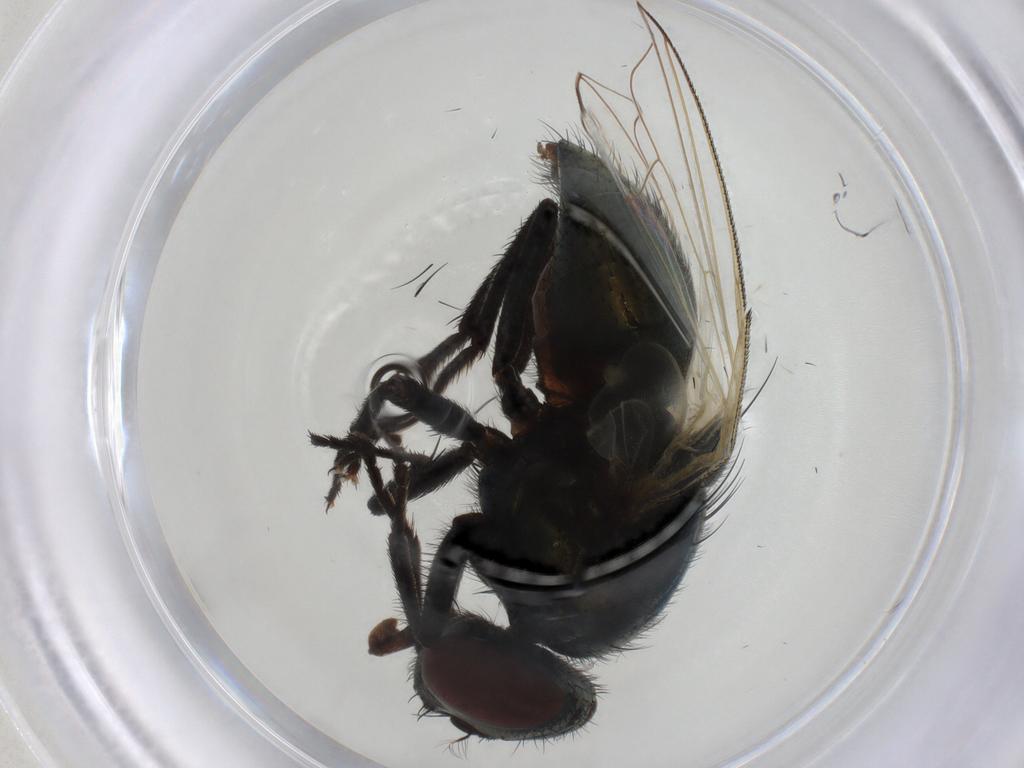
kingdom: Animalia
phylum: Arthropoda
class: Insecta
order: Diptera
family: Muscidae
